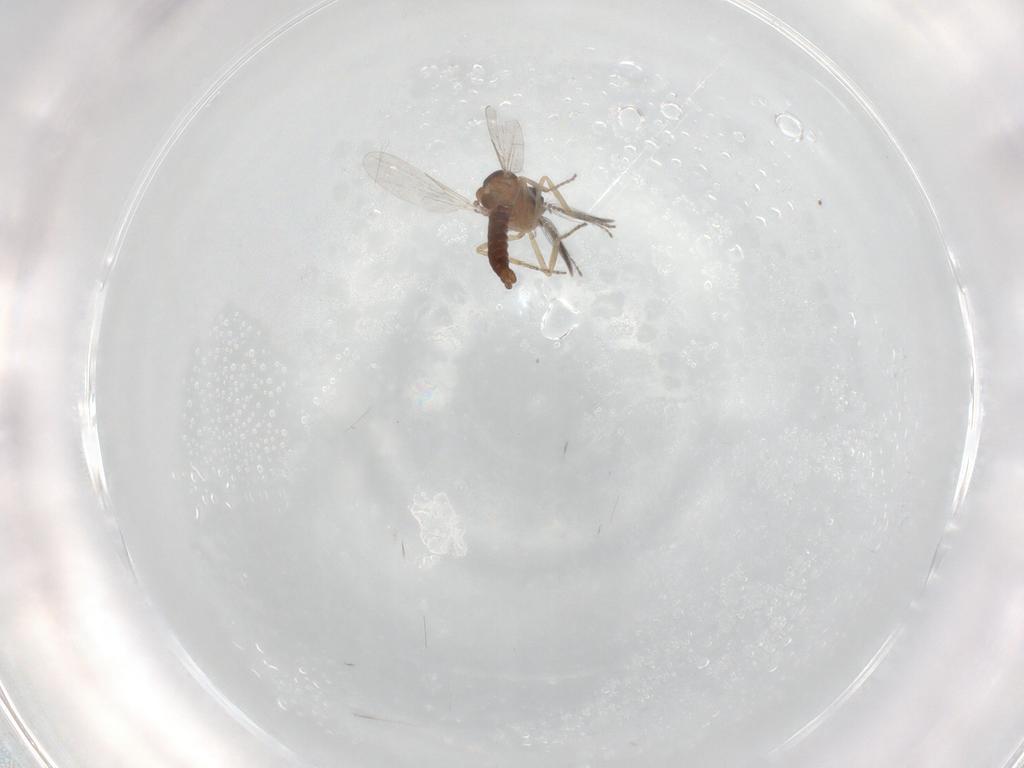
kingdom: Animalia
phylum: Arthropoda
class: Insecta
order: Diptera
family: Ceratopogonidae
